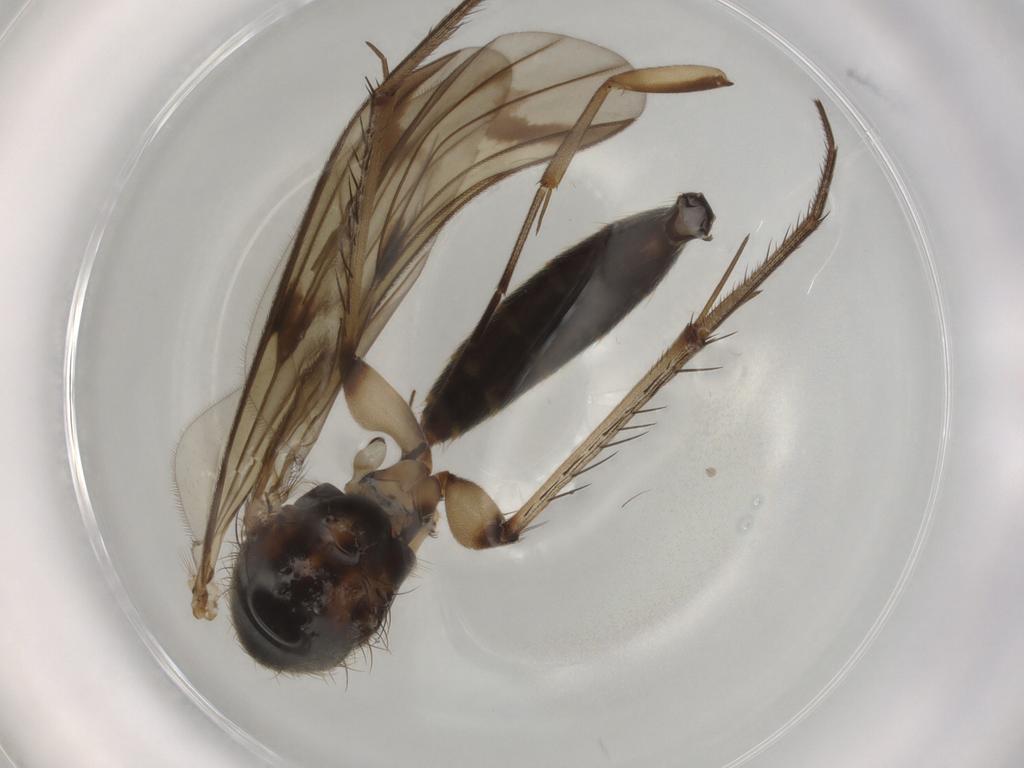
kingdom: Animalia
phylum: Arthropoda
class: Insecta
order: Diptera
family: Mycetophilidae
